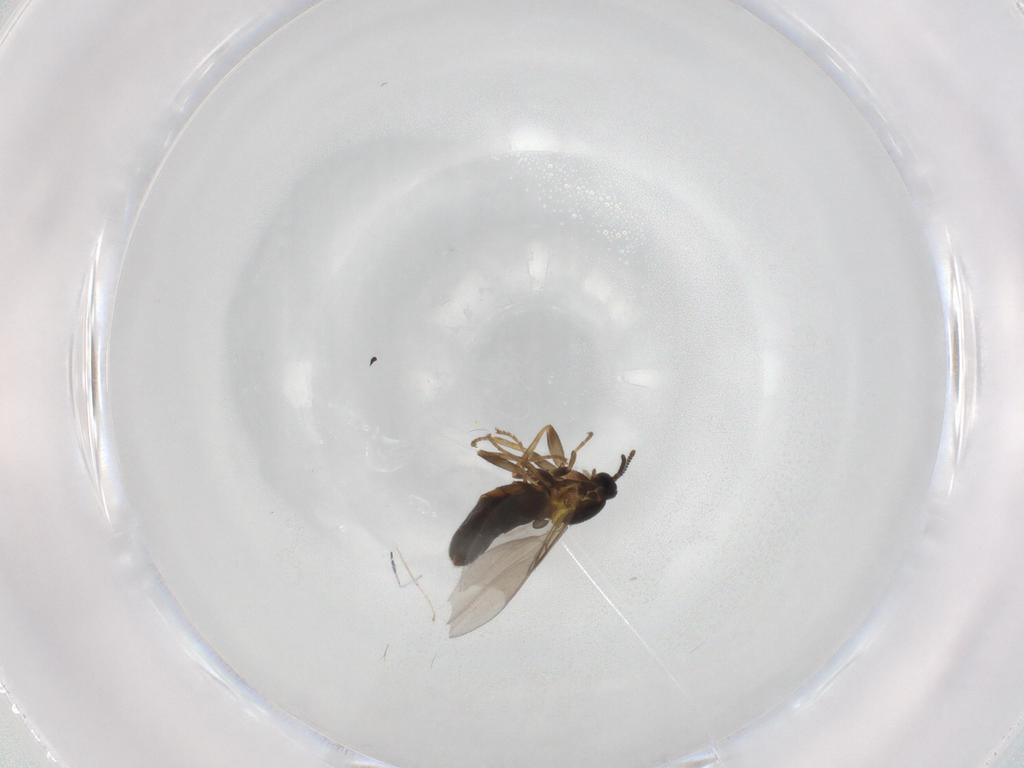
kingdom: Animalia
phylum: Arthropoda
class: Insecta
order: Diptera
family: Scatopsidae
